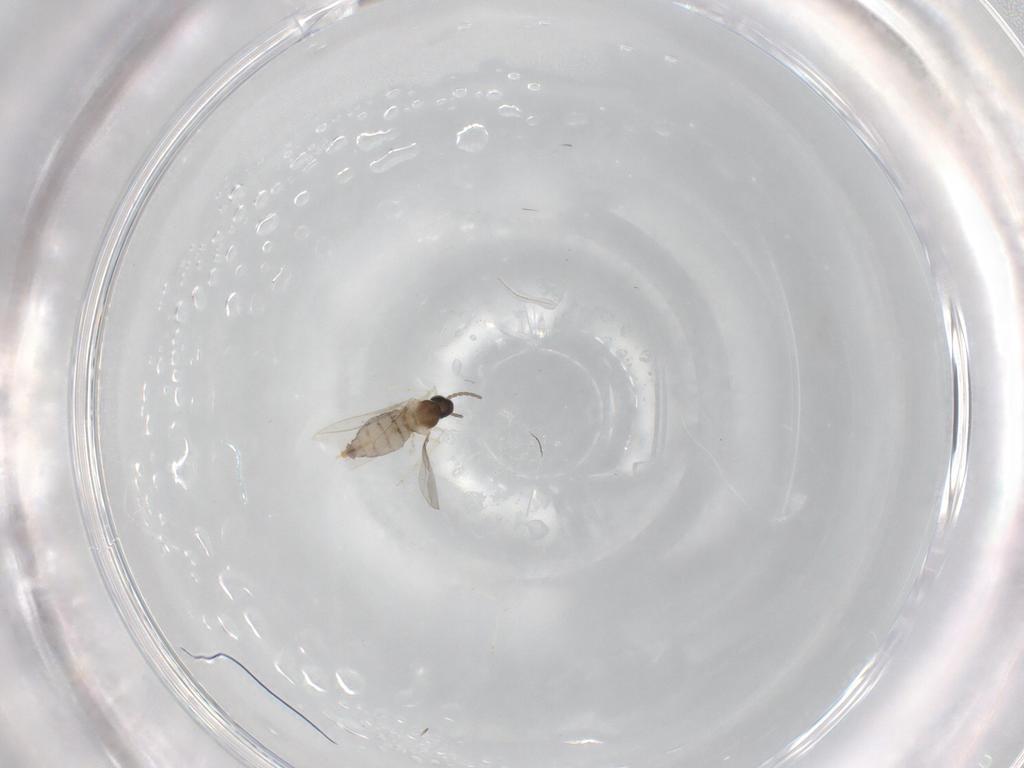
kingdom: Animalia
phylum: Arthropoda
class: Insecta
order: Diptera
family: Cecidomyiidae
